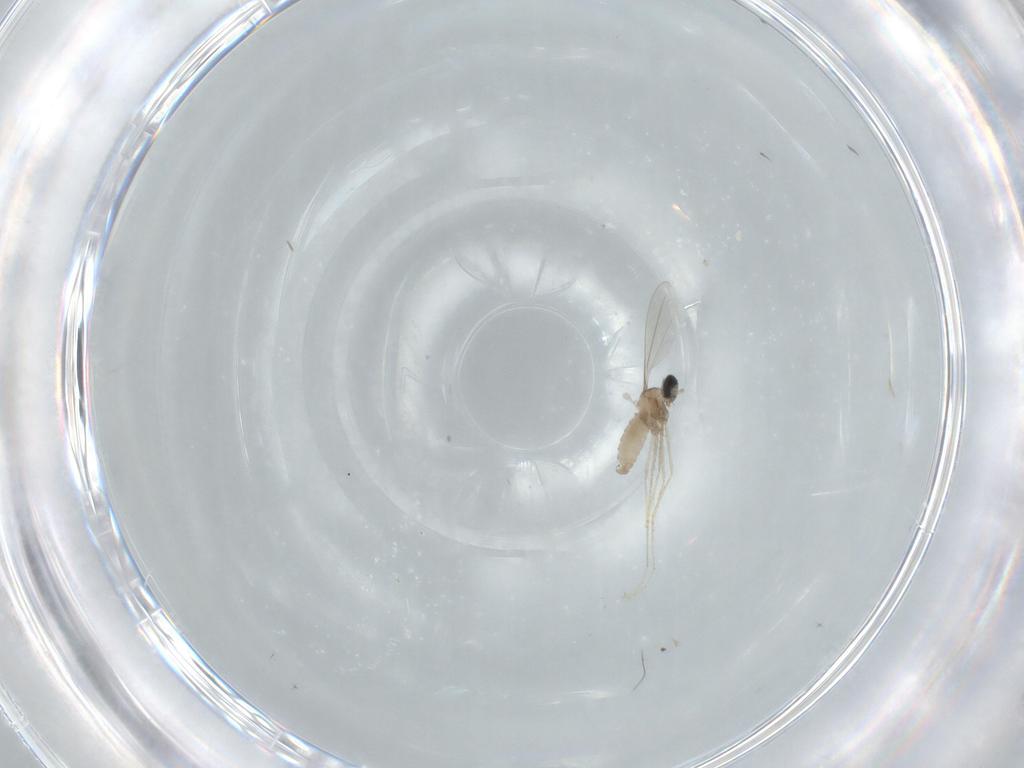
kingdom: Animalia
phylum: Arthropoda
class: Insecta
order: Diptera
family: Cecidomyiidae
